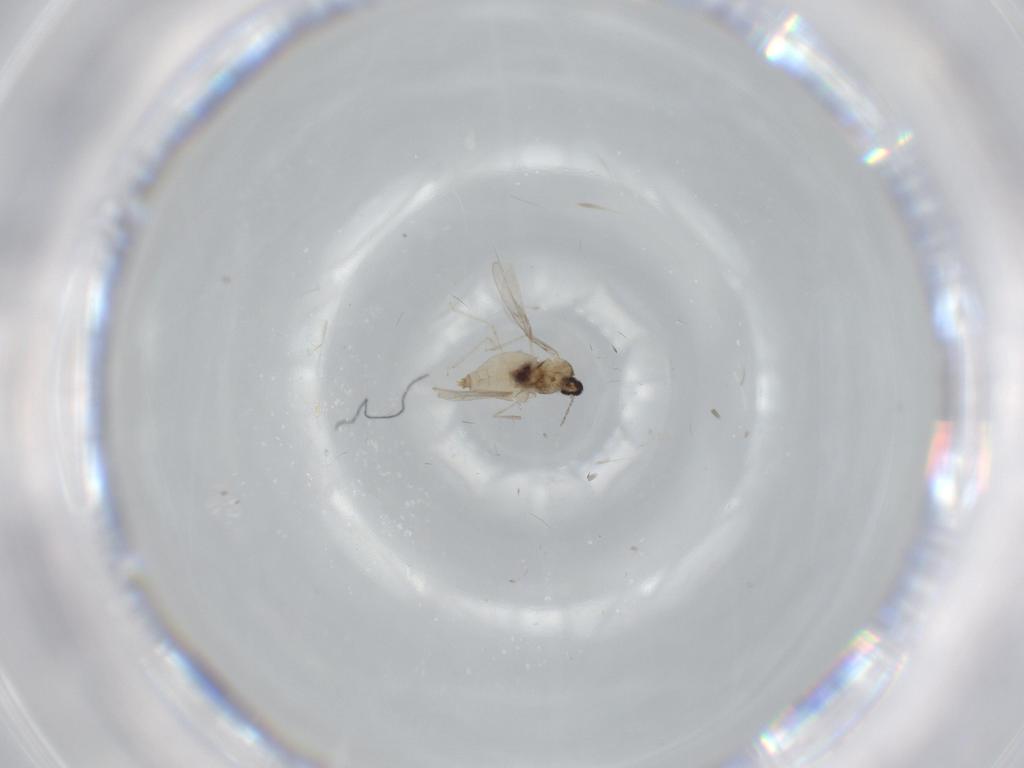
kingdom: Animalia
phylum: Arthropoda
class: Insecta
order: Diptera
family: Cecidomyiidae
